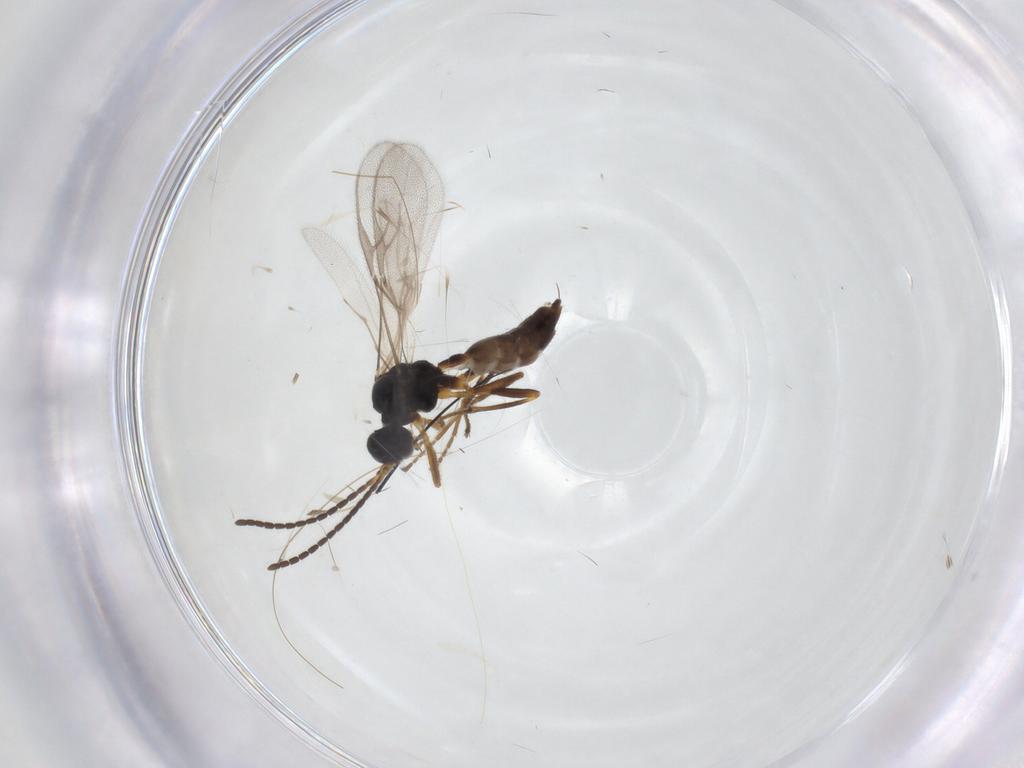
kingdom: Animalia
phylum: Arthropoda
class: Insecta
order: Hymenoptera
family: Braconidae
